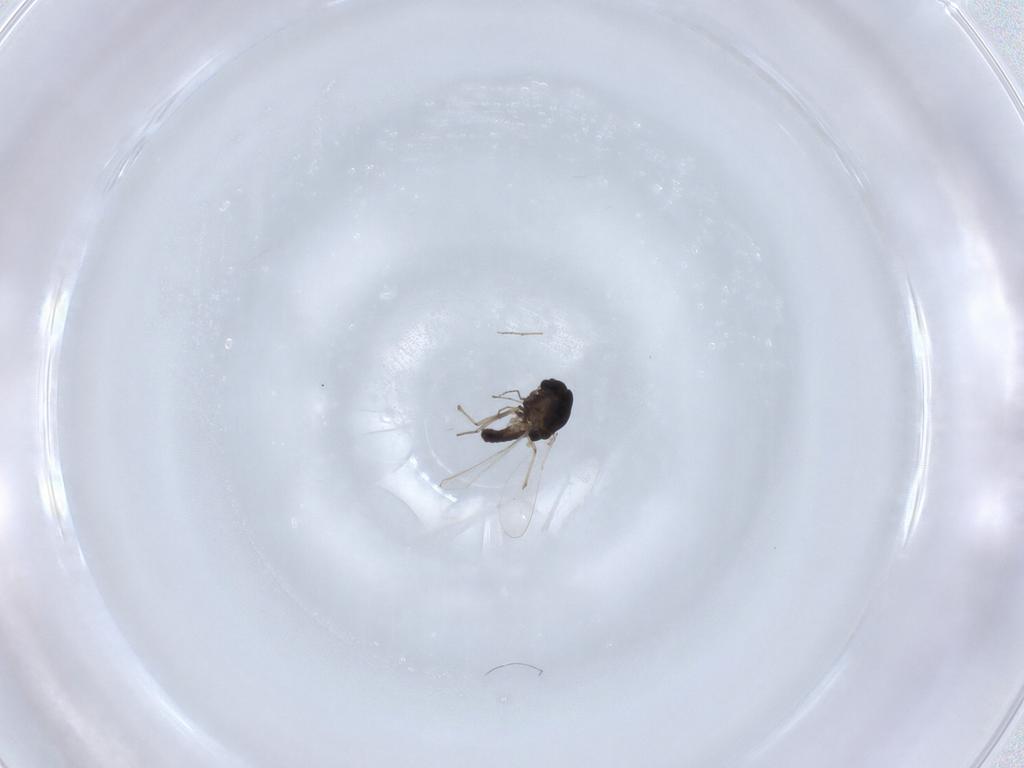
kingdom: Animalia
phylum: Arthropoda
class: Insecta
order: Diptera
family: Chironomidae
